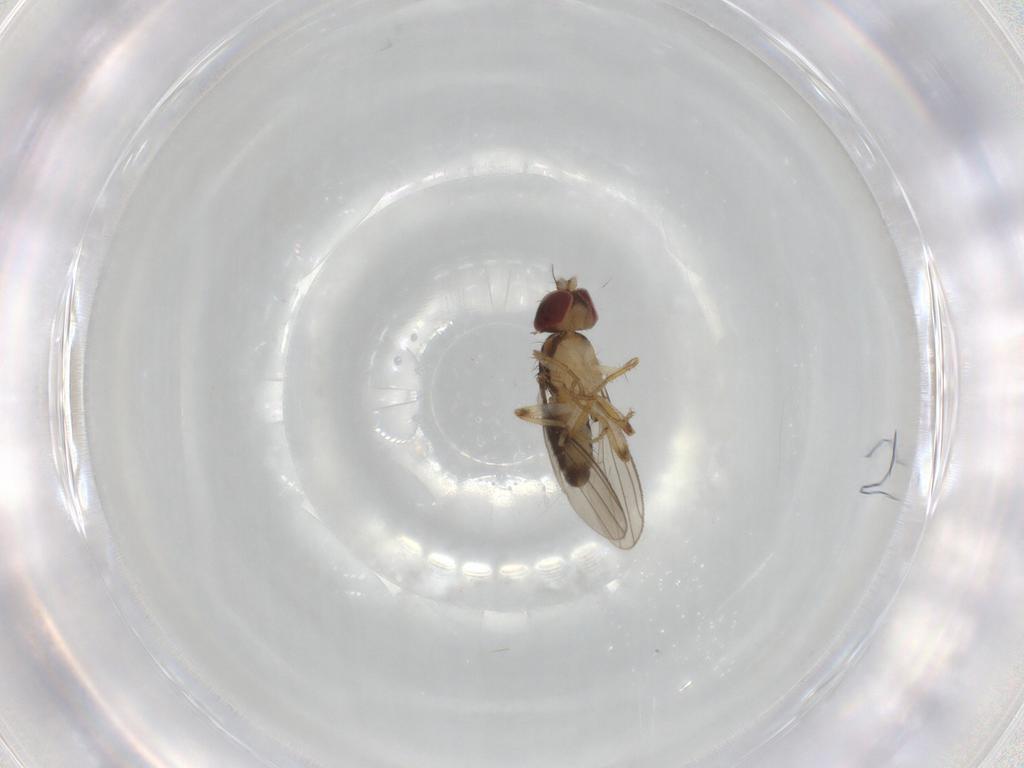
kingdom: Animalia
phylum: Arthropoda
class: Insecta
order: Diptera
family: Anthomyzidae
